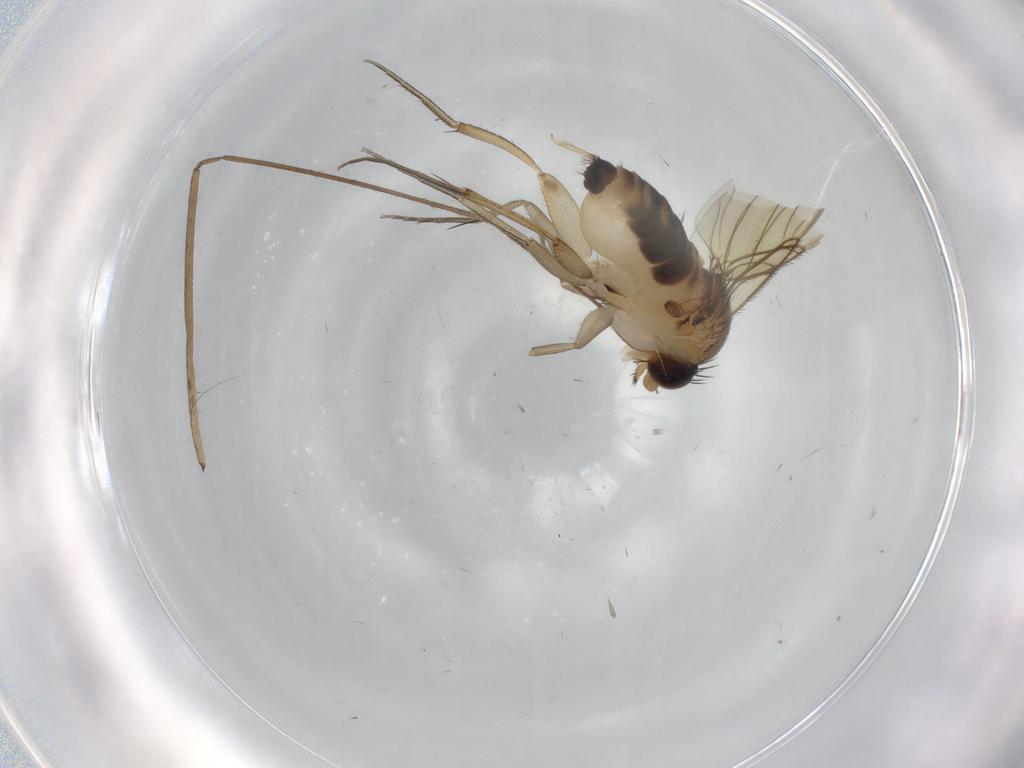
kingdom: Animalia
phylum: Arthropoda
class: Insecta
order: Diptera
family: Phoridae
